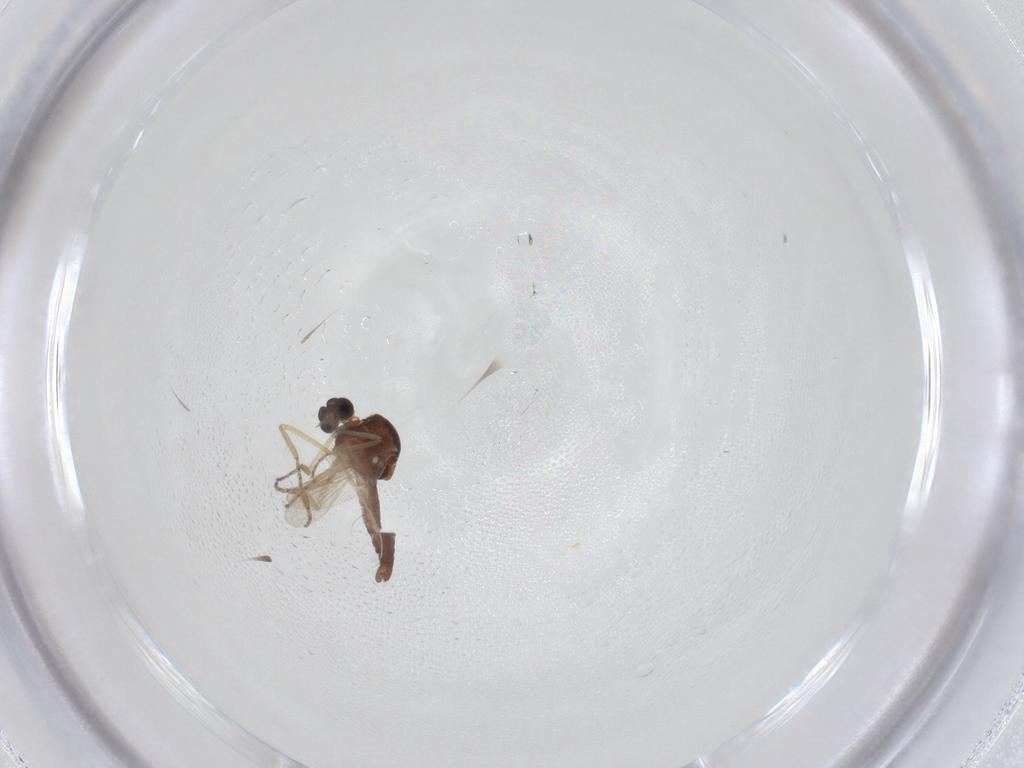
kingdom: Animalia
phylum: Arthropoda
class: Insecta
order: Diptera
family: Ceratopogonidae
